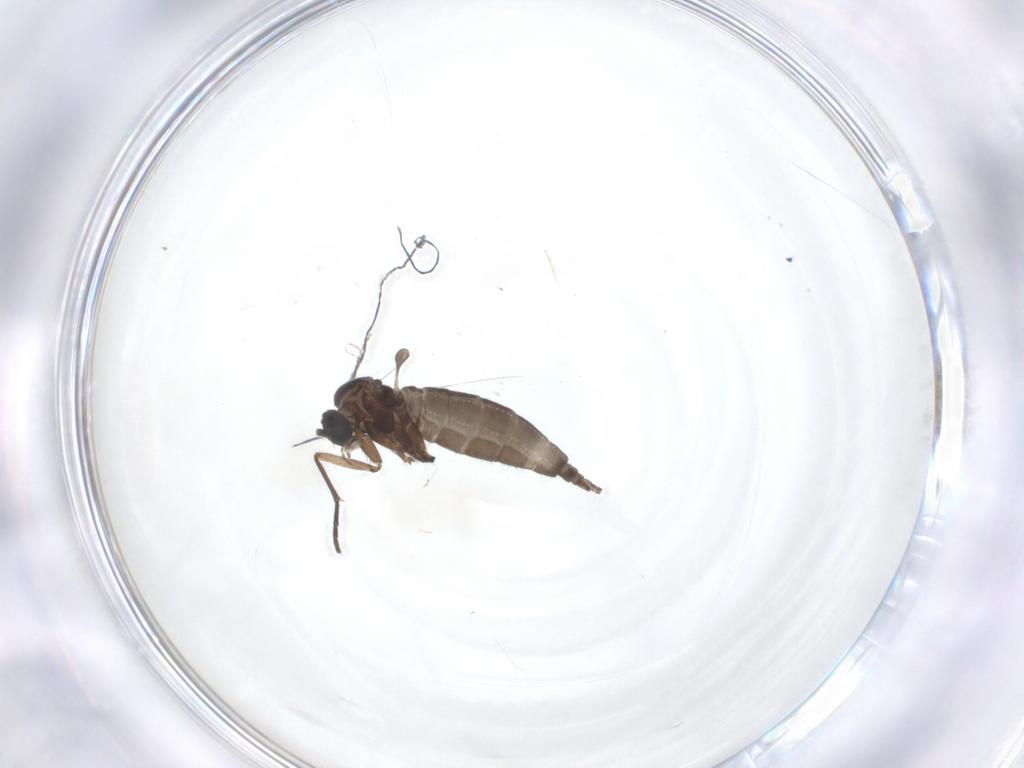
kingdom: Animalia
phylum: Arthropoda
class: Insecta
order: Diptera
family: Sciaridae
